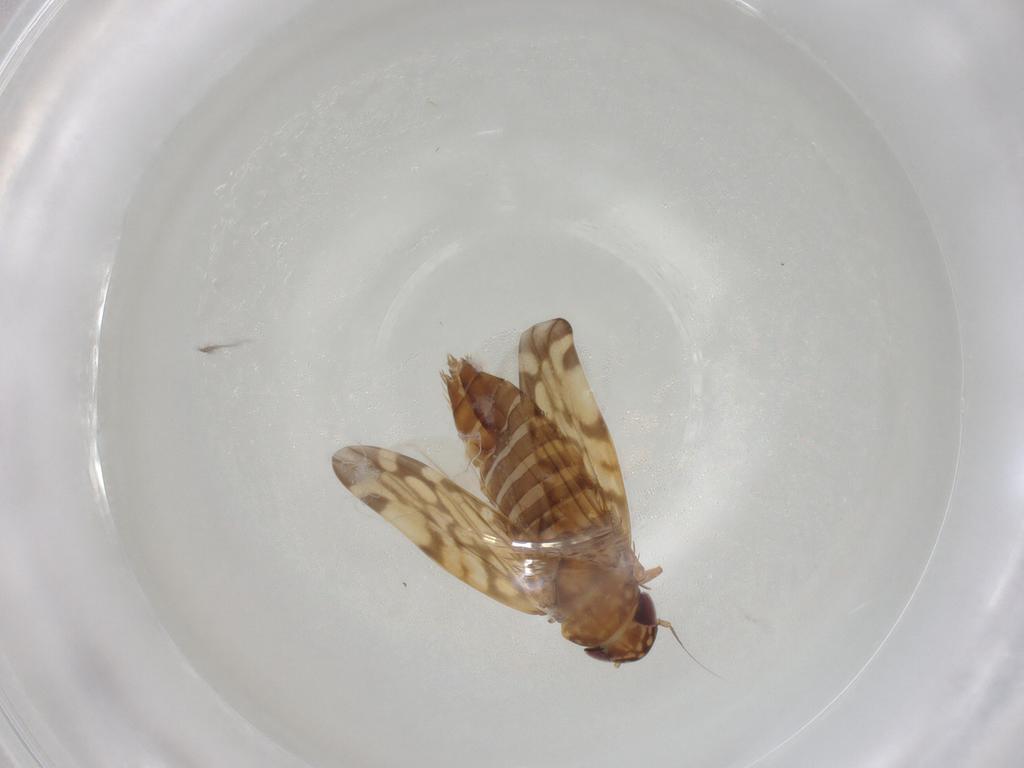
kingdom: Animalia
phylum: Arthropoda
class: Insecta
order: Hemiptera
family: Cicadellidae
